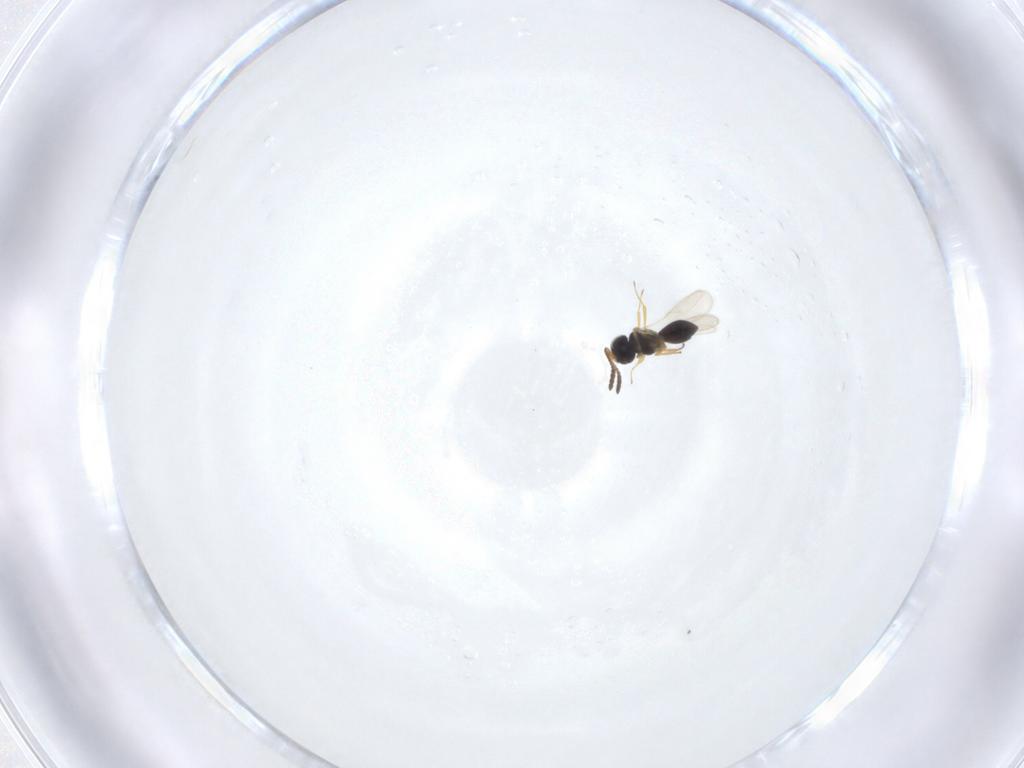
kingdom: Animalia
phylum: Arthropoda
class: Insecta
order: Hymenoptera
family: Scelionidae
